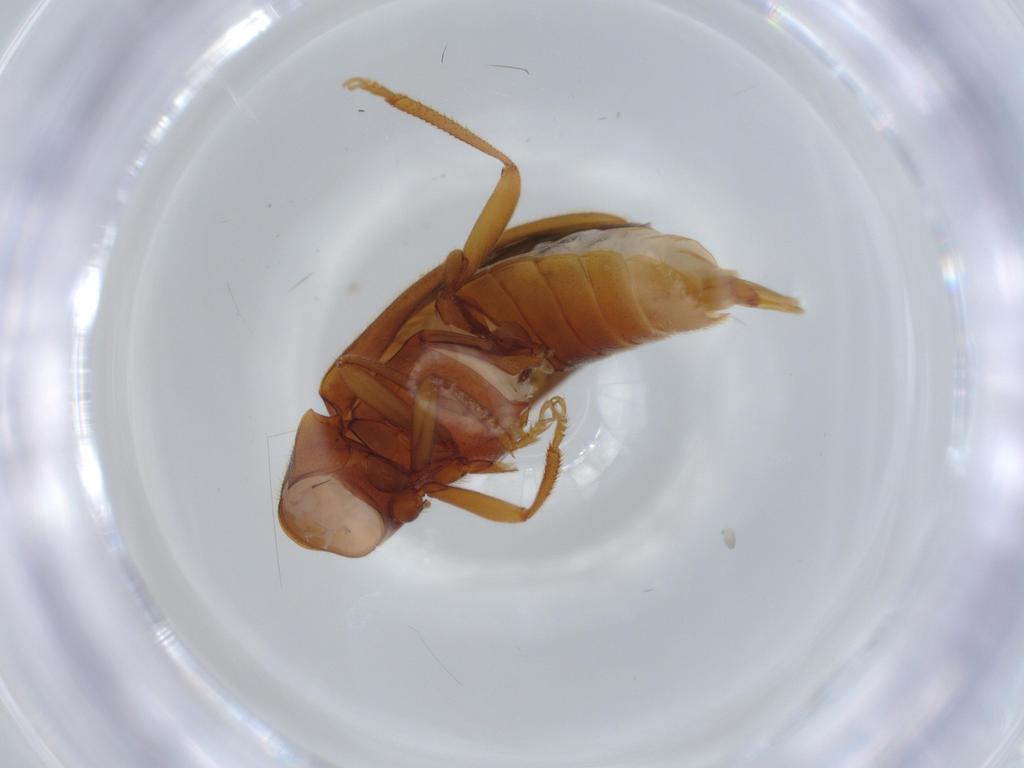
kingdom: Animalia
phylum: Arthropoda
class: Insecta
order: Coleoptera
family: Ptilodactylidae
